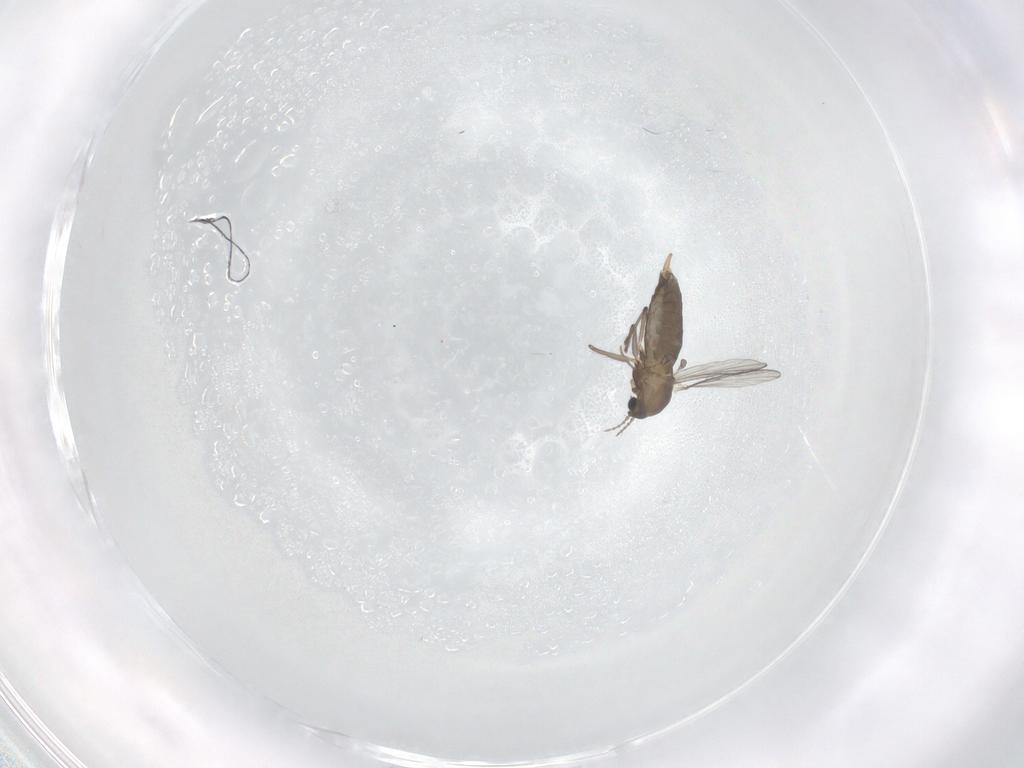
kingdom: Animalia
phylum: Arthropoda
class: Insecta
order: Diptera
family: Chironomidae
